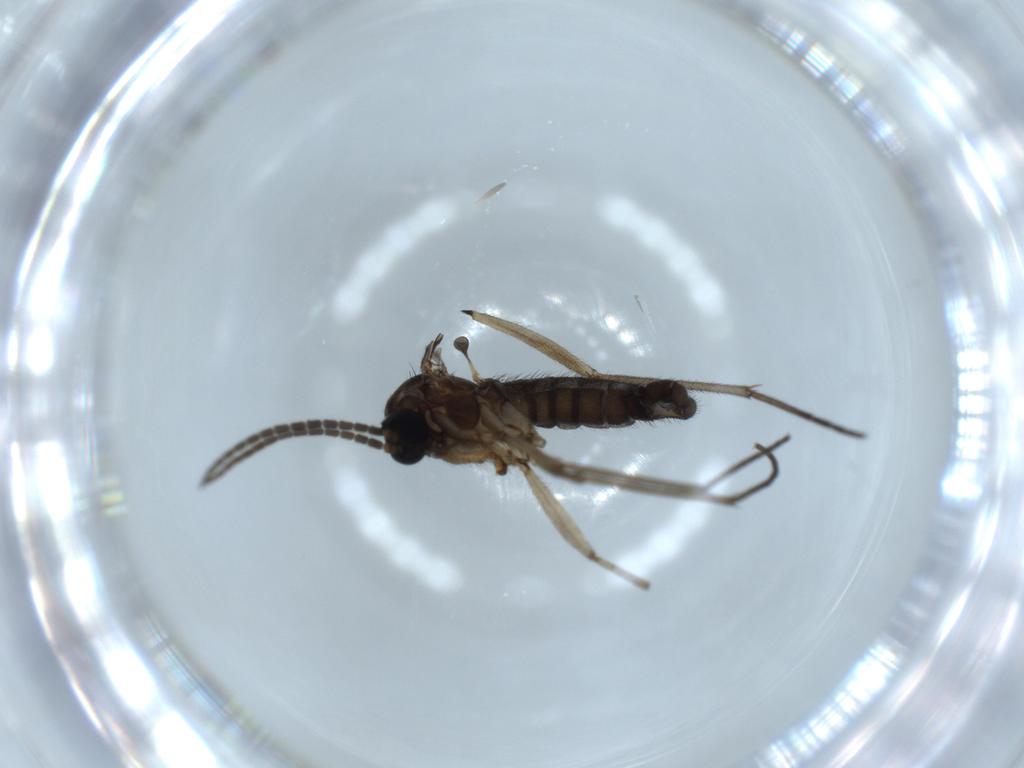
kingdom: Animalia
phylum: Arthropoda
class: Insecta
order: Diptera
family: Sciaridae
